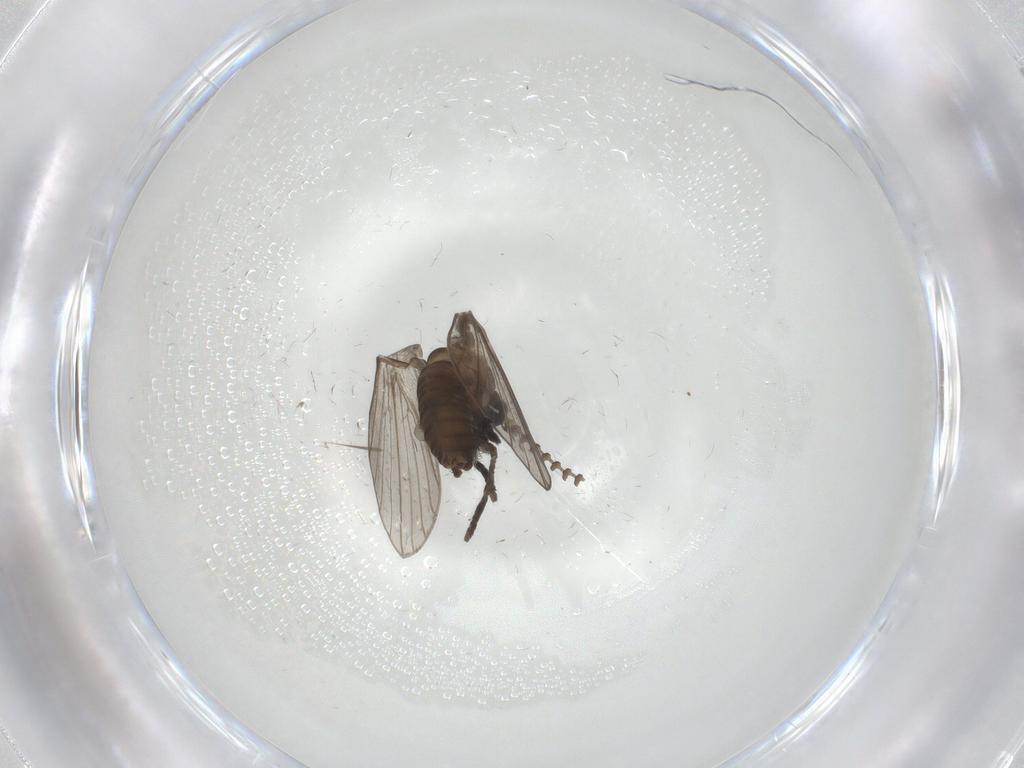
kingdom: Animalia
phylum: Arthropoda
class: Insecta
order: Diptera
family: Psychodidae
